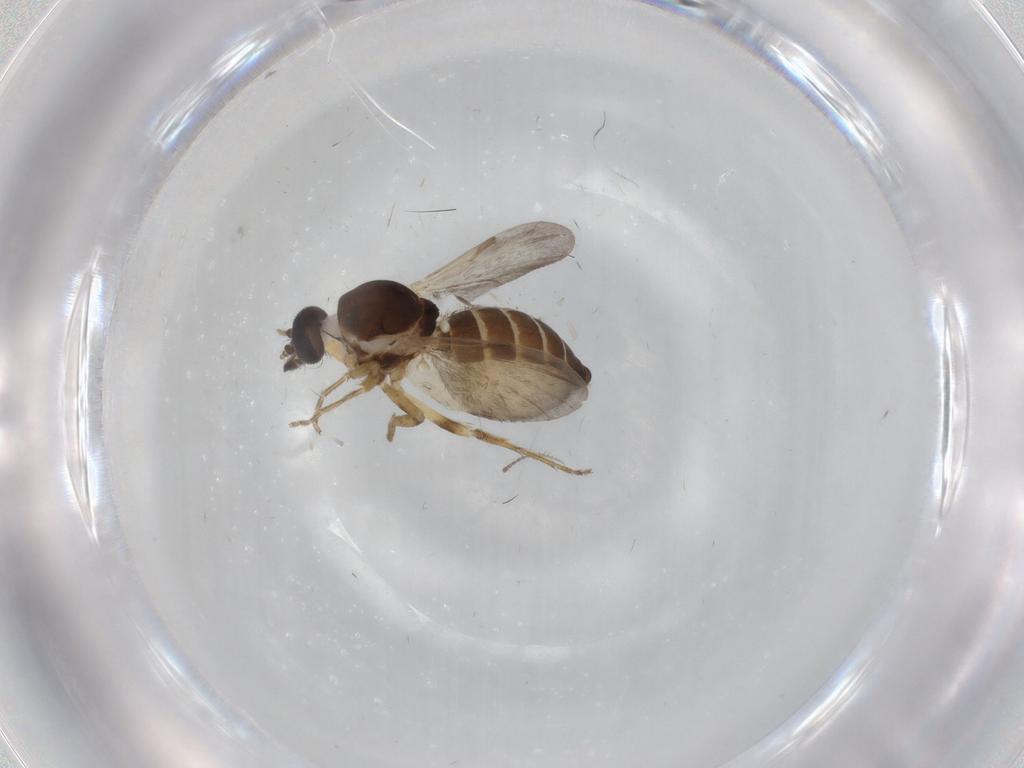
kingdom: Animalia
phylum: Arthropoda
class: Insecta
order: Diptera
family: Ceratopogonidae
